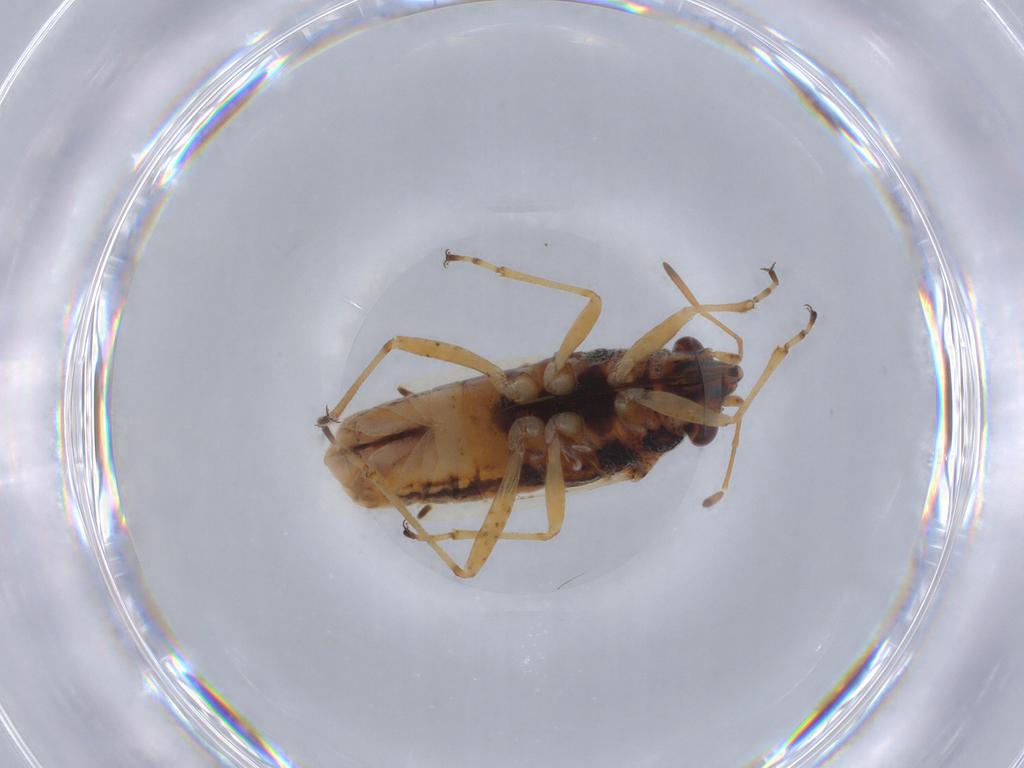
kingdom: Animalia
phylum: Arthropoda
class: Insecta
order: Hemiptera
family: Lygaeidae
